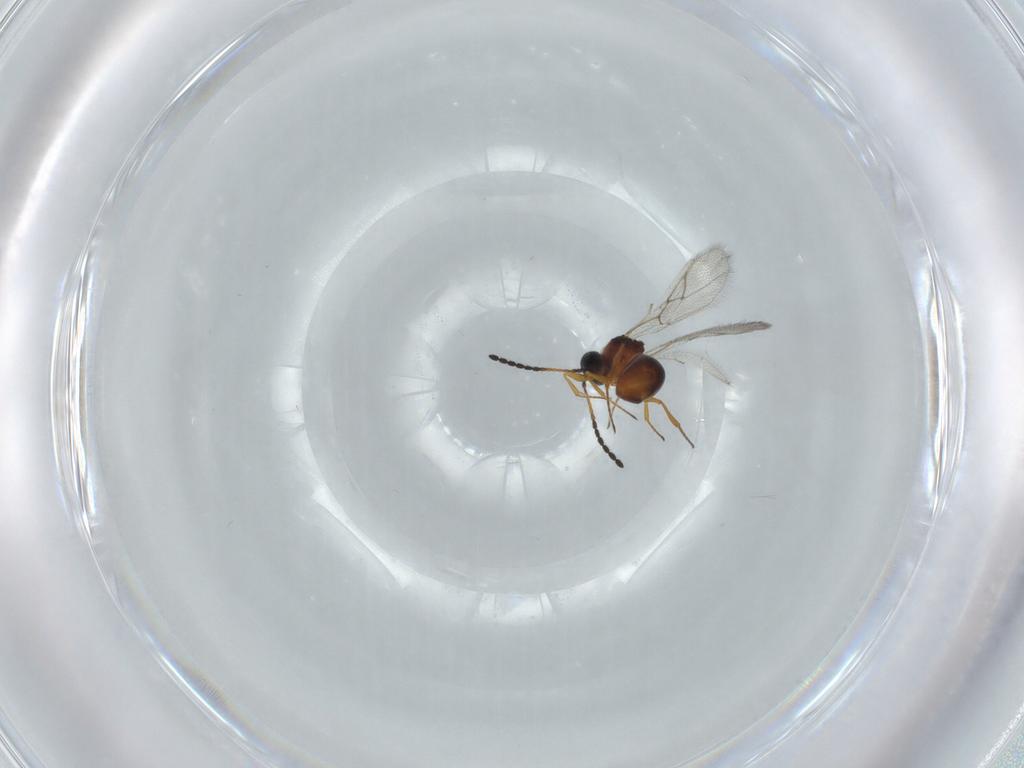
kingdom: Animalia
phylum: Arthropoda
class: Insecta
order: Hymenoptera
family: Figitidae
